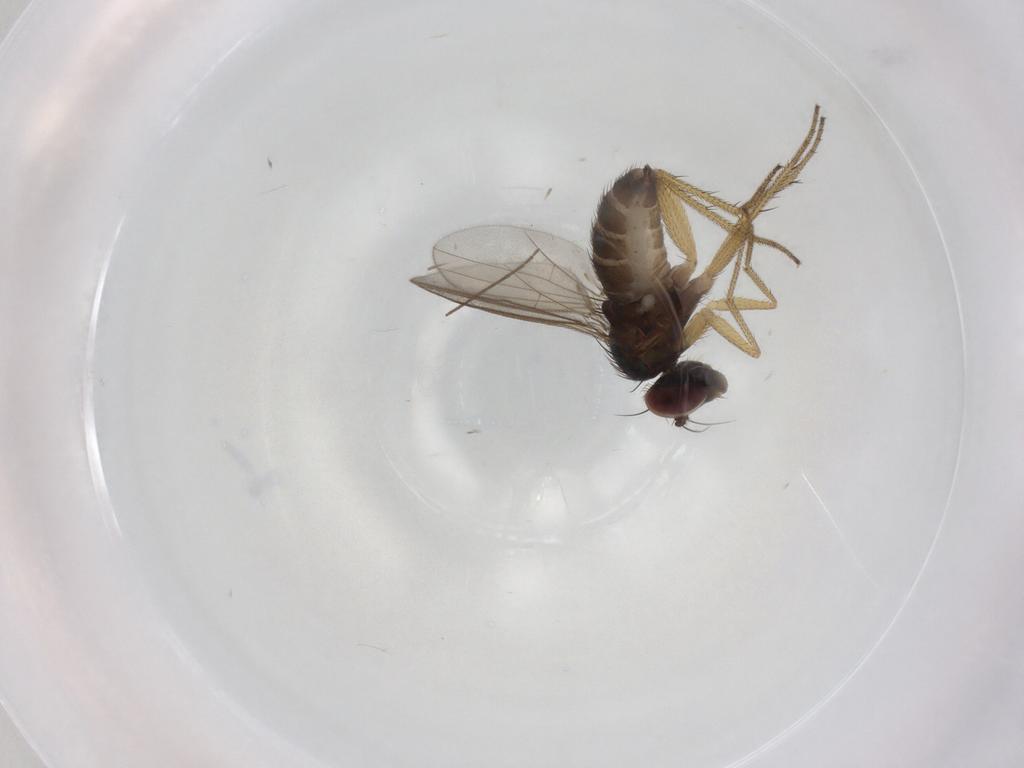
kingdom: Animalia
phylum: Arthropoda
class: Insecta
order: Diptera
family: Dolichopodidae
